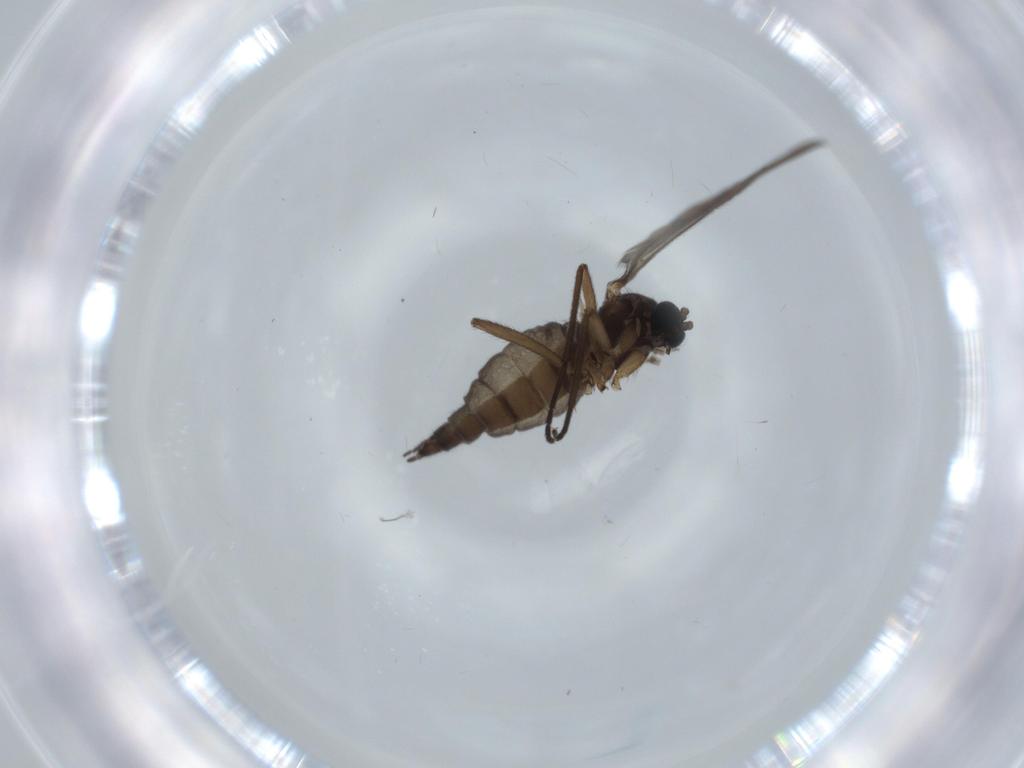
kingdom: Animalia
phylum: Arthropoda
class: Insecta
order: Diptera
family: Sciaridae
